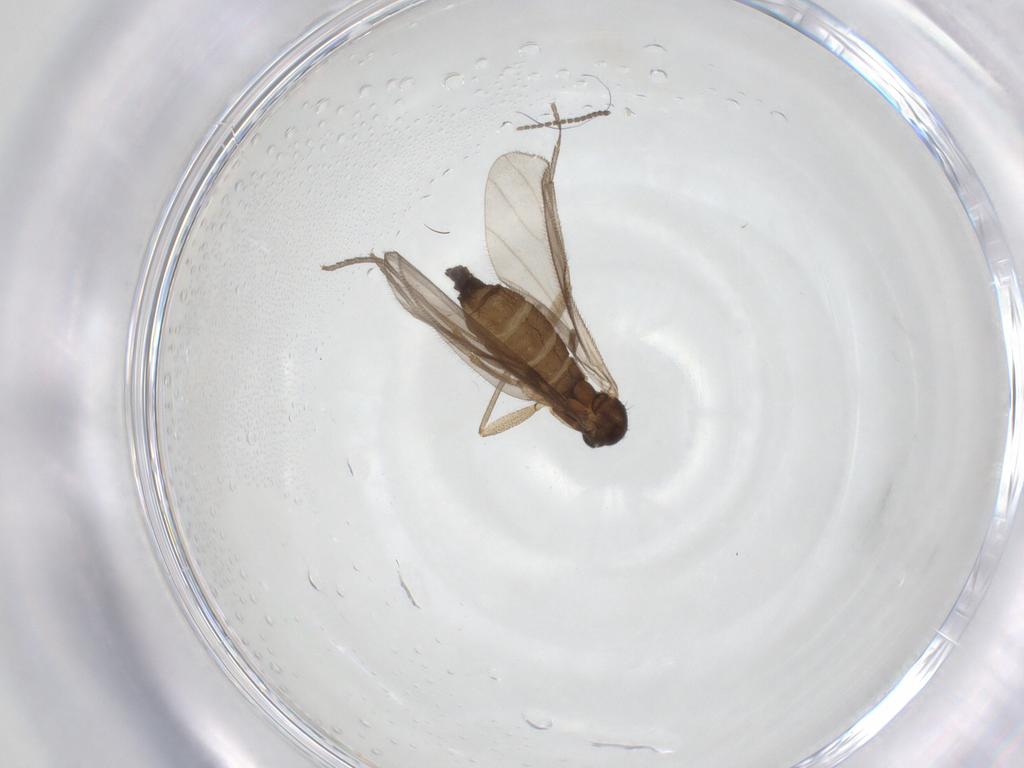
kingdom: Animalia
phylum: Arthropoda
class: Insecta
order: Diptera
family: Sciaridae
